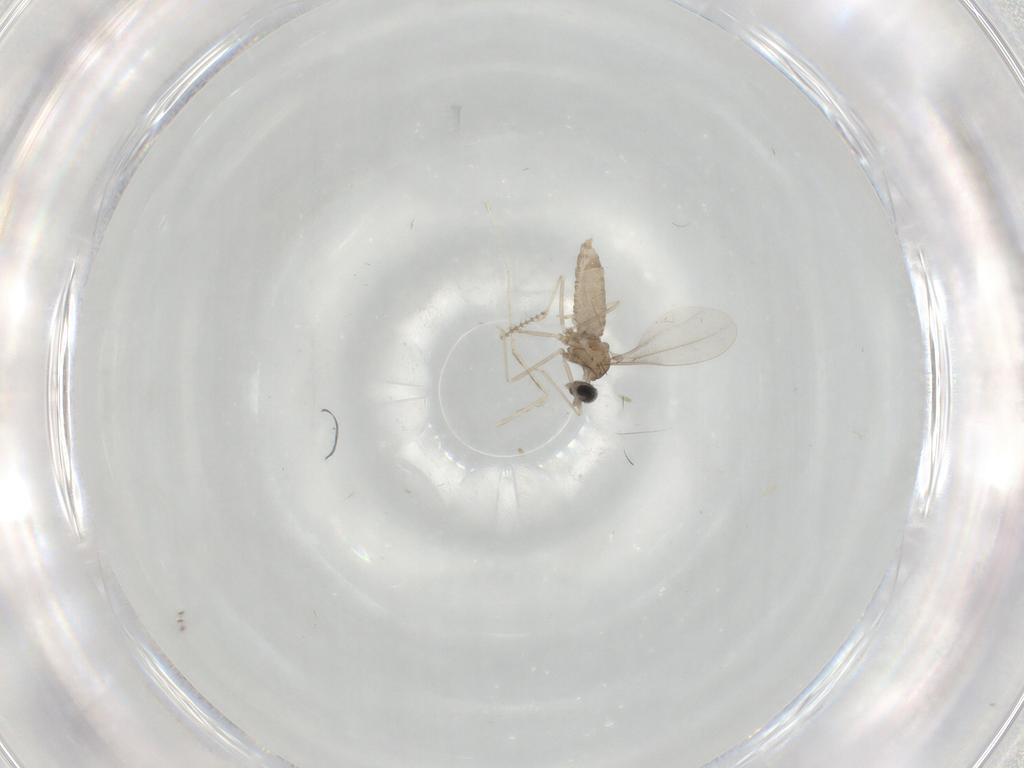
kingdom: Animalia
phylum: Arthropoda
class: Insecta
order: Diptera
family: Cecidomyiidae
